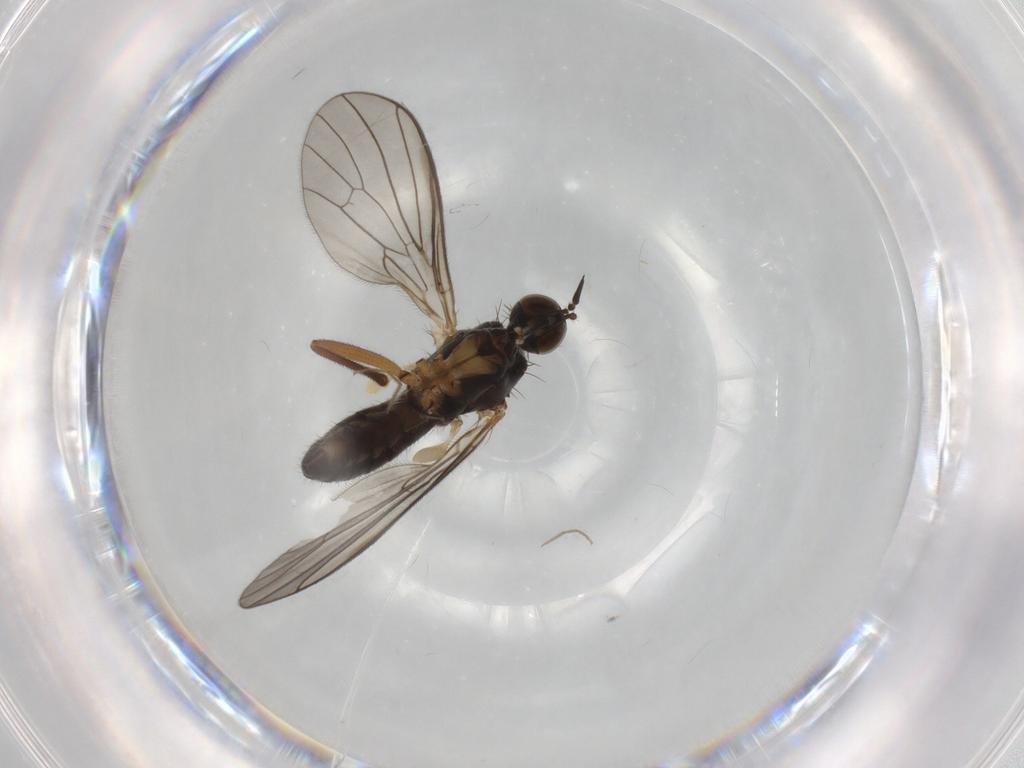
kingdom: Animalia
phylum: Arthropoda
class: Insecta
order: Diptera
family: Empididae
